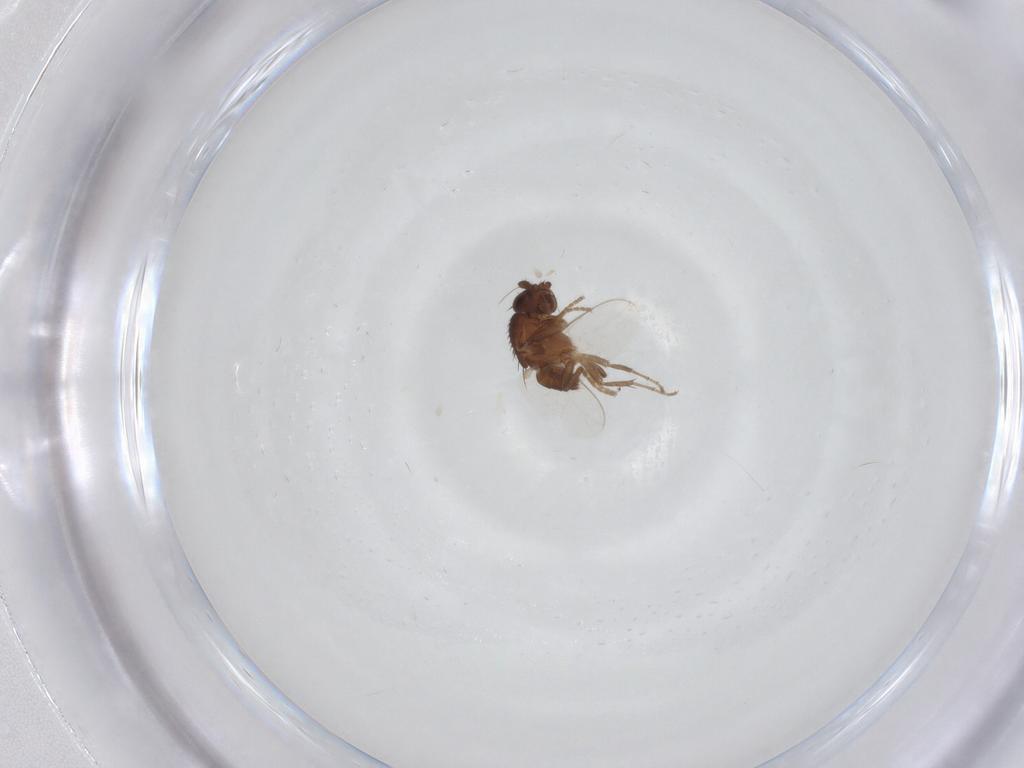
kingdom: Animalia
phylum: Arthropoda
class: Insecta
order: Diptera
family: Sphaeroceridae
